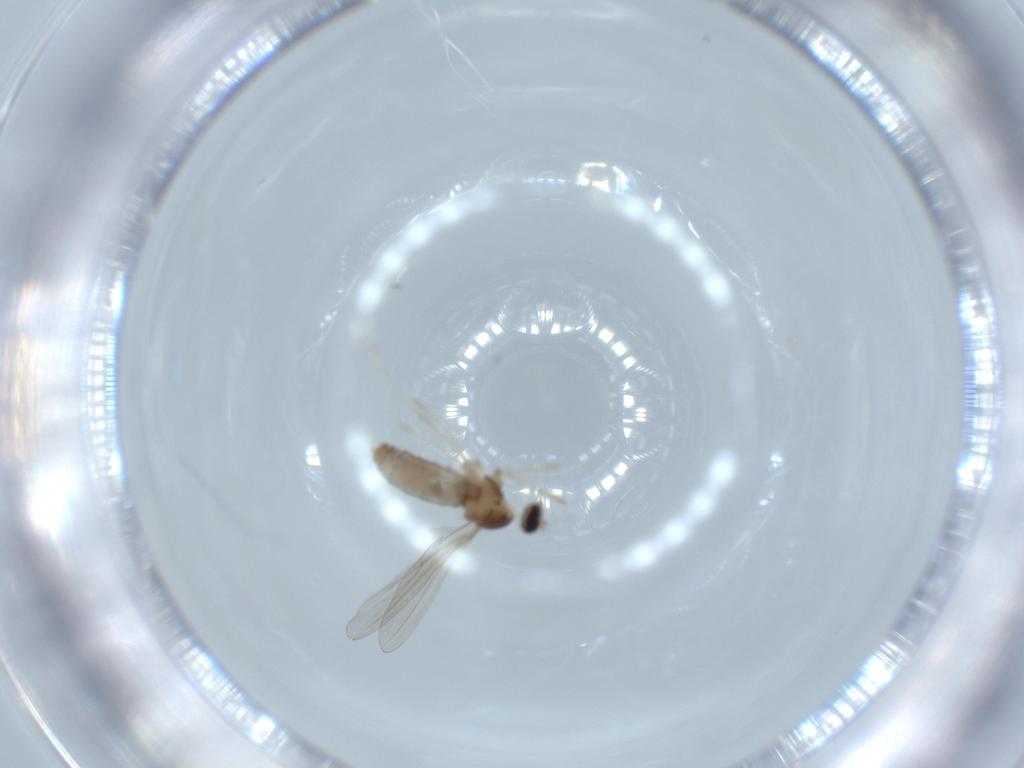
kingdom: Animalia
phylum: Arthropoda
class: Insecta
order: Diptera
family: Cecidomyiidae
